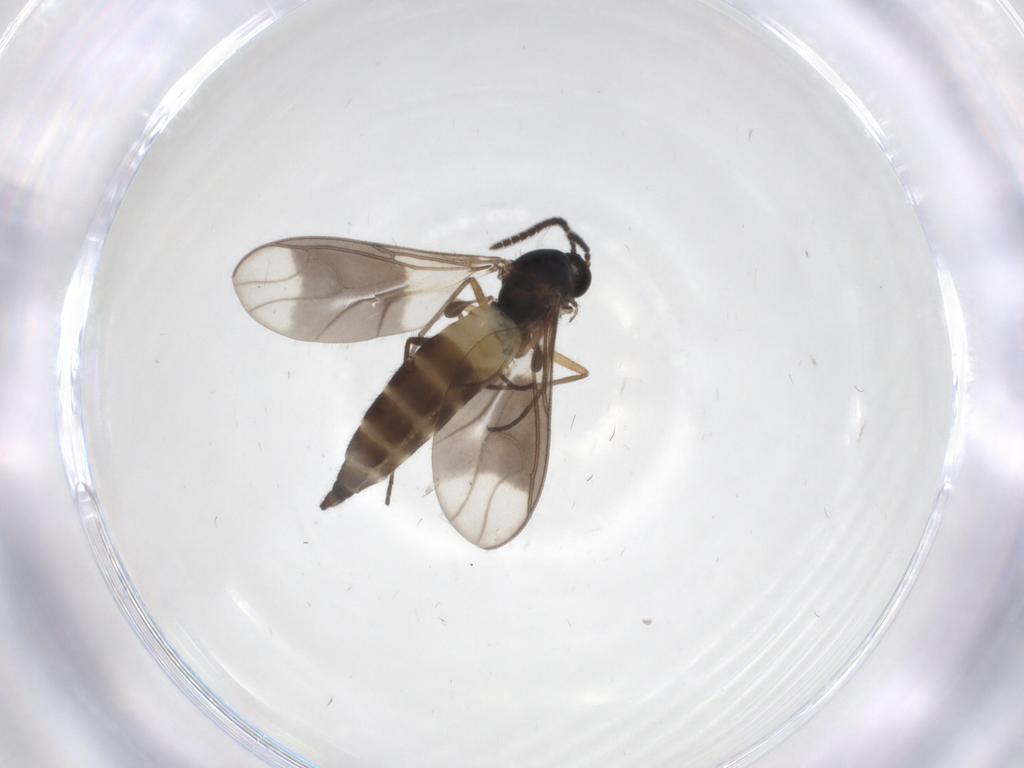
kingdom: Animalia
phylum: Arthropoda
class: Insecta
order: Diptera
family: Sciaridae
